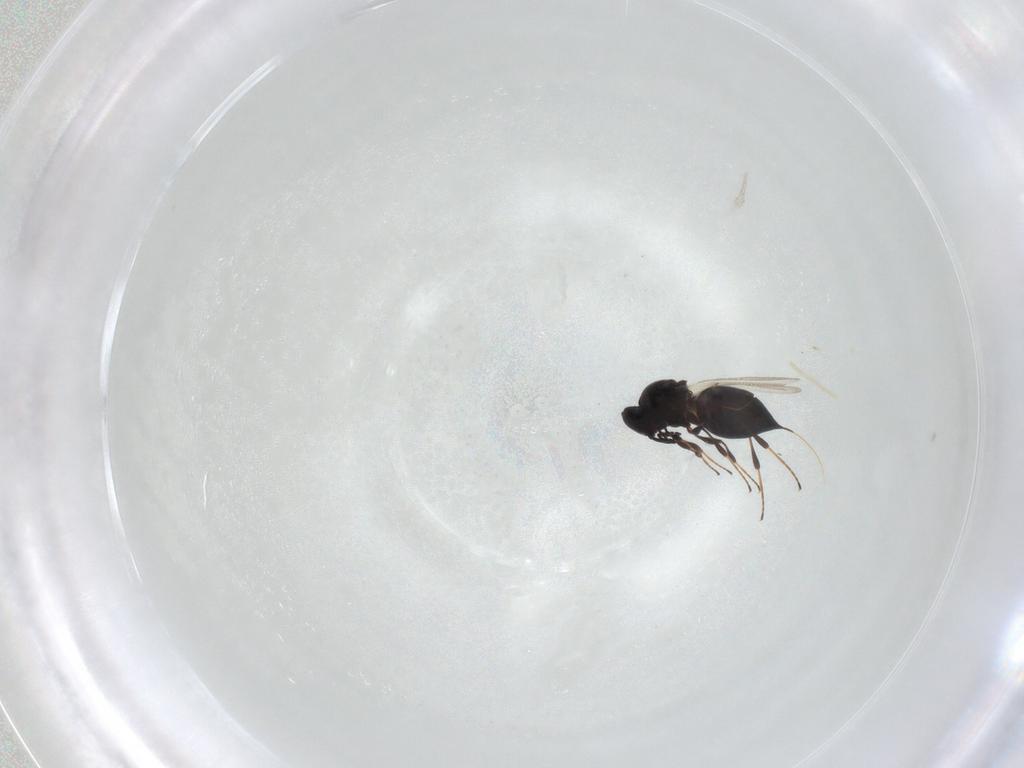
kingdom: Animalia
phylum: Arthropoda
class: Insecta
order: Hymenoptera
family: Platygastridae
